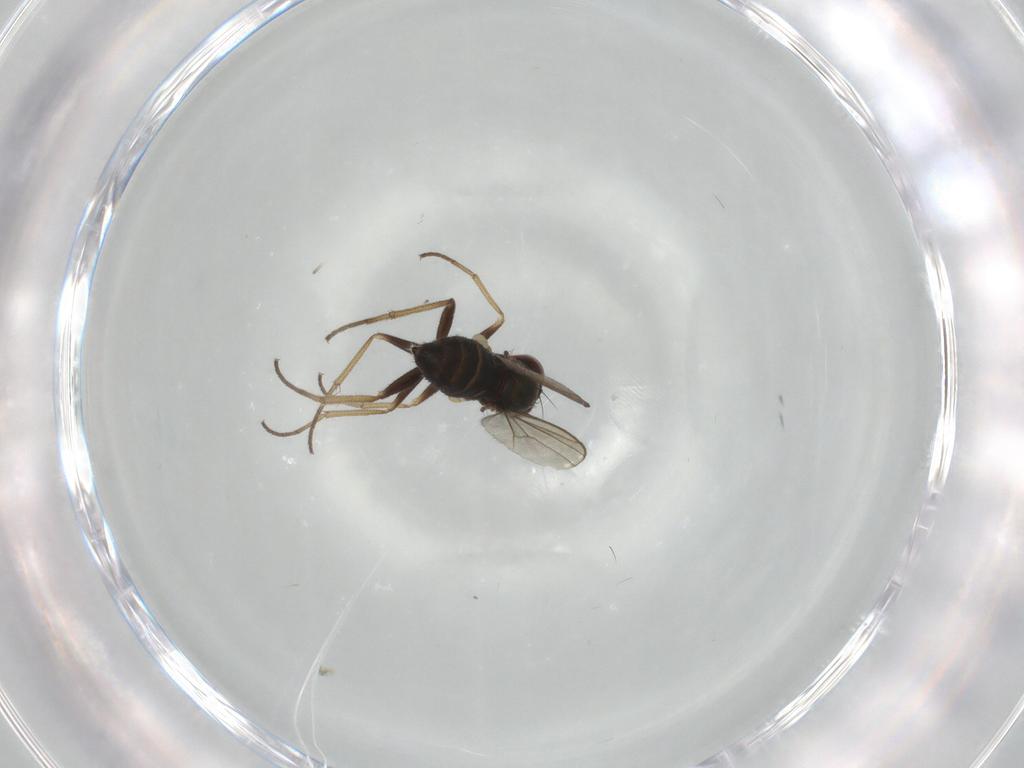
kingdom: Animalia
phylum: Arthropoda
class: Insecta
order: Diptera
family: Dolichopodidae
